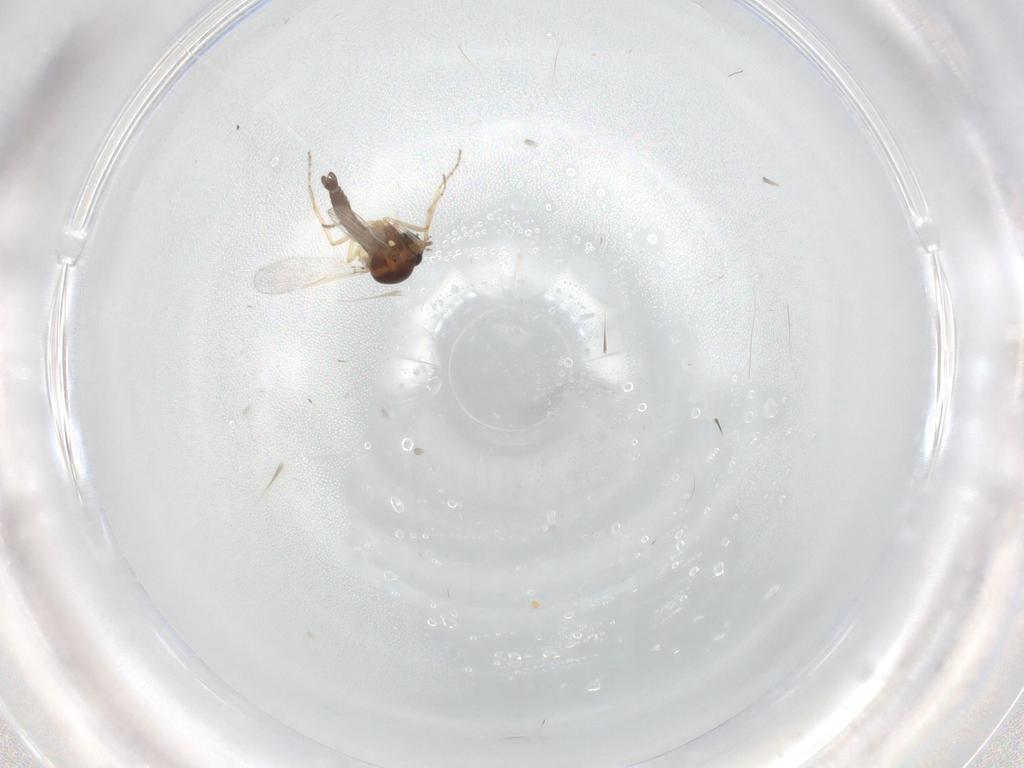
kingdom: Animalia
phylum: Arthropoda
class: Insecta
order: Diptera
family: Ceratopogonidae
